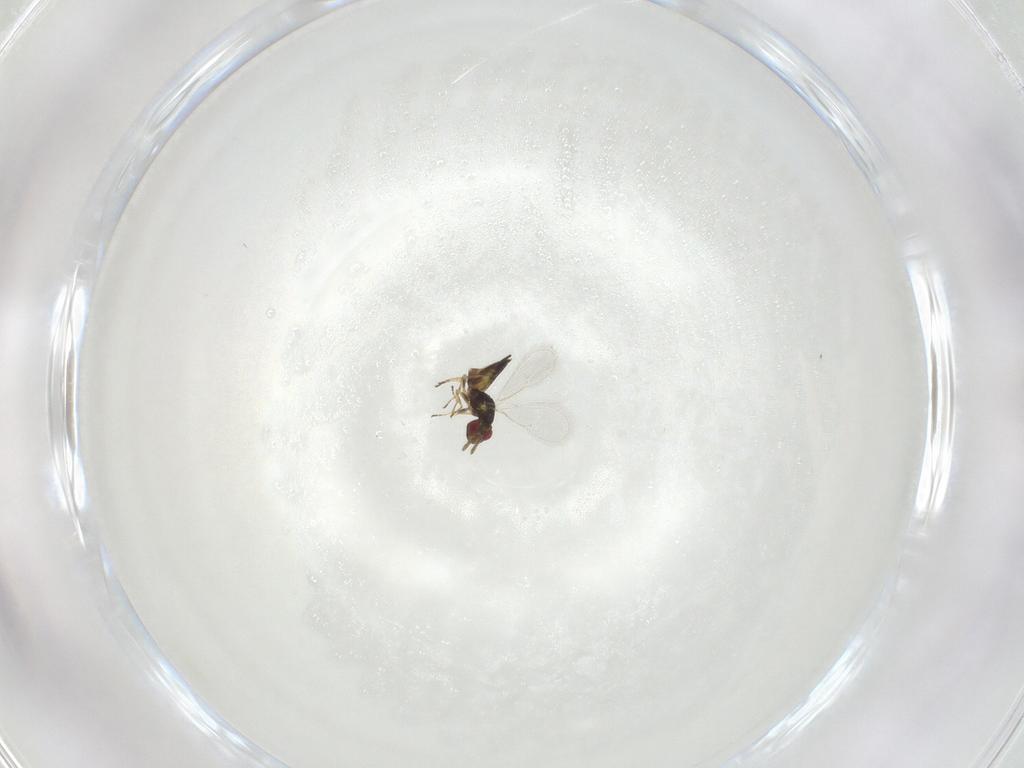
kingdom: Animalia
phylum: Arthropoda
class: Insecta
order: Hymenoptera
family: Eulophidae
